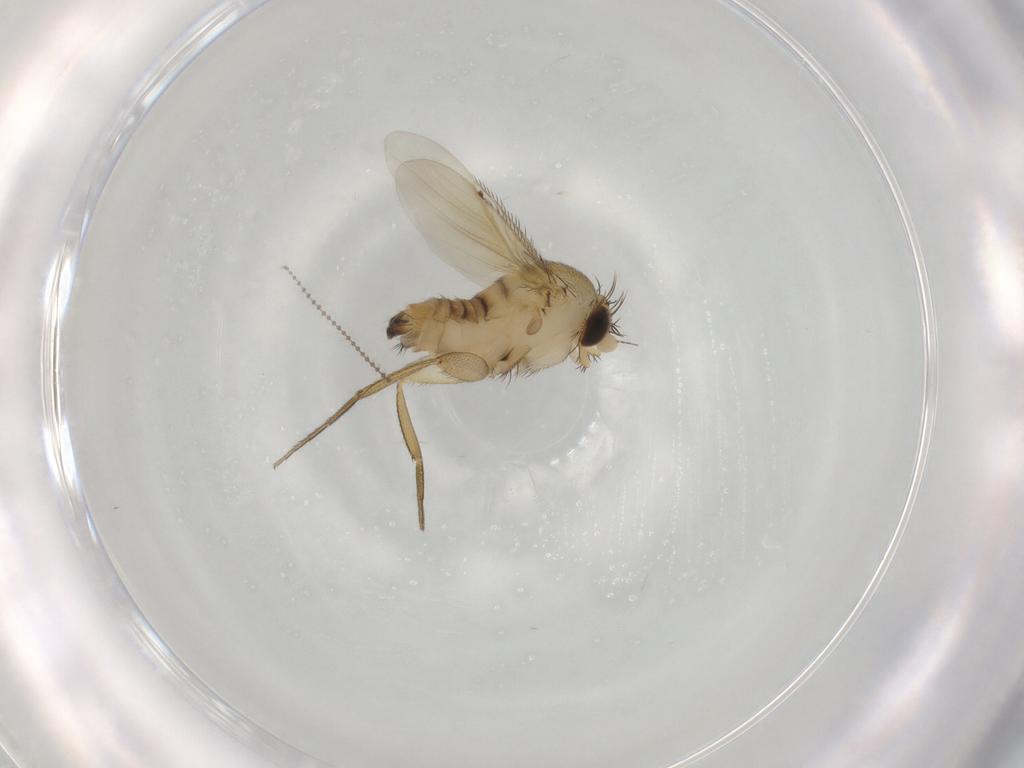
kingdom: Animalia
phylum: Arthropoda
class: Insecta
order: Diptera
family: Phoridae
